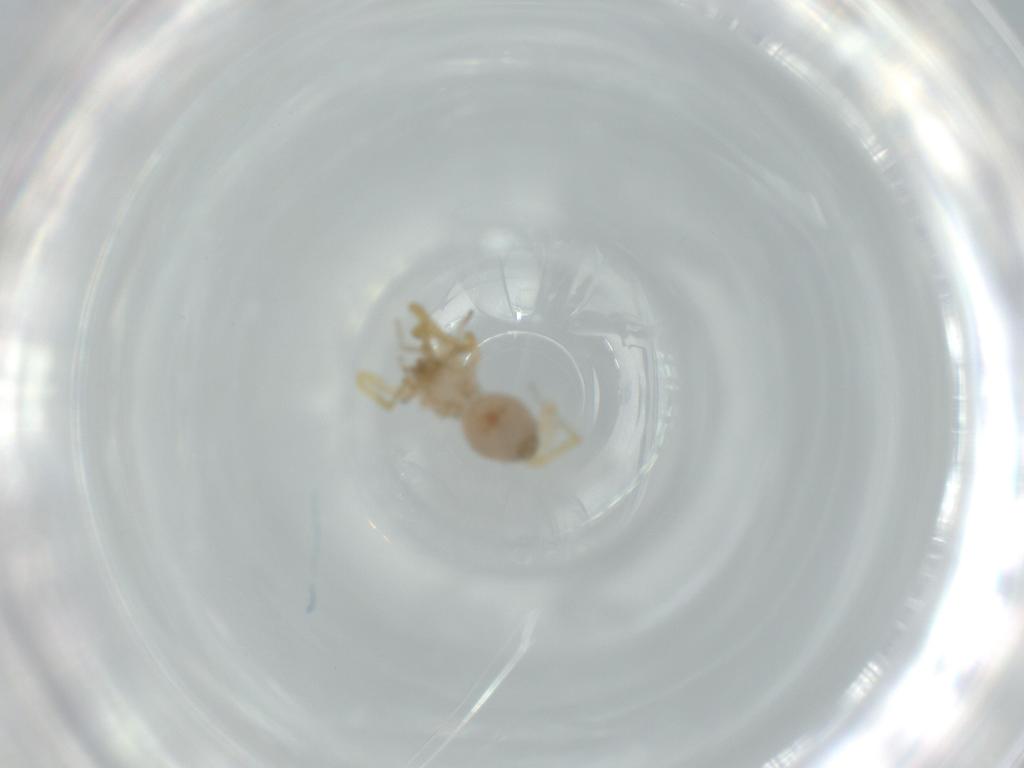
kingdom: Animalia
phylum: Arthropoda
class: Arachnida
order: Araneae
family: Oonopidae
